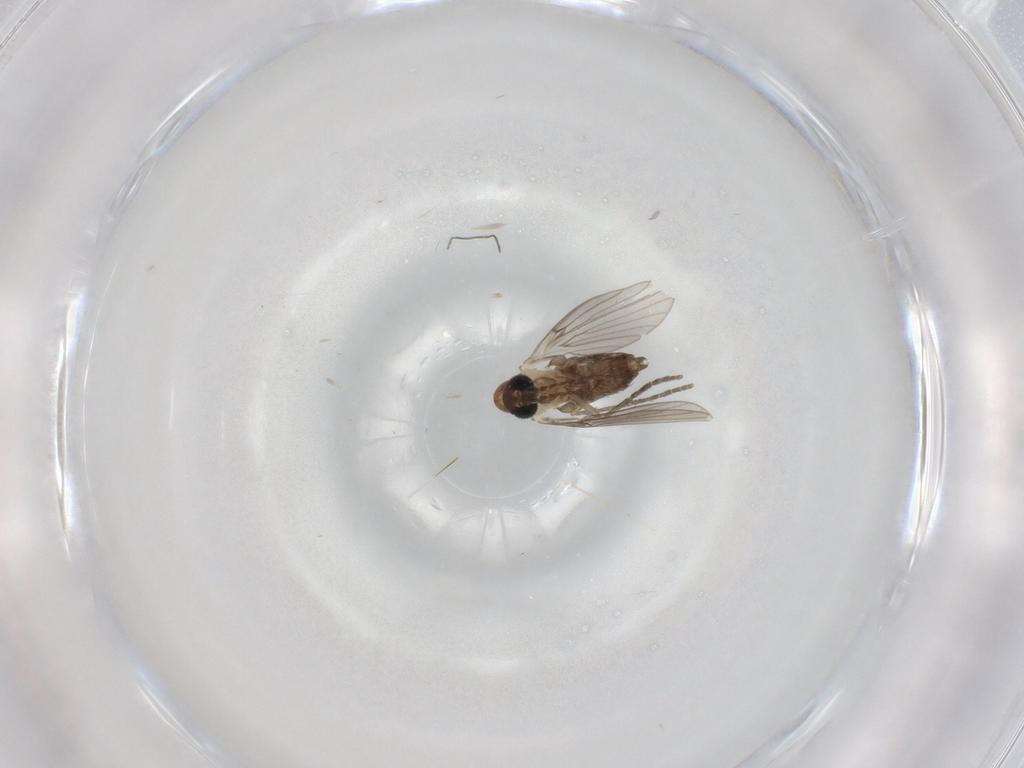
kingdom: Animalia
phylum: Arthropoda
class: Insecta
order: Diptera
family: Psychodidae
